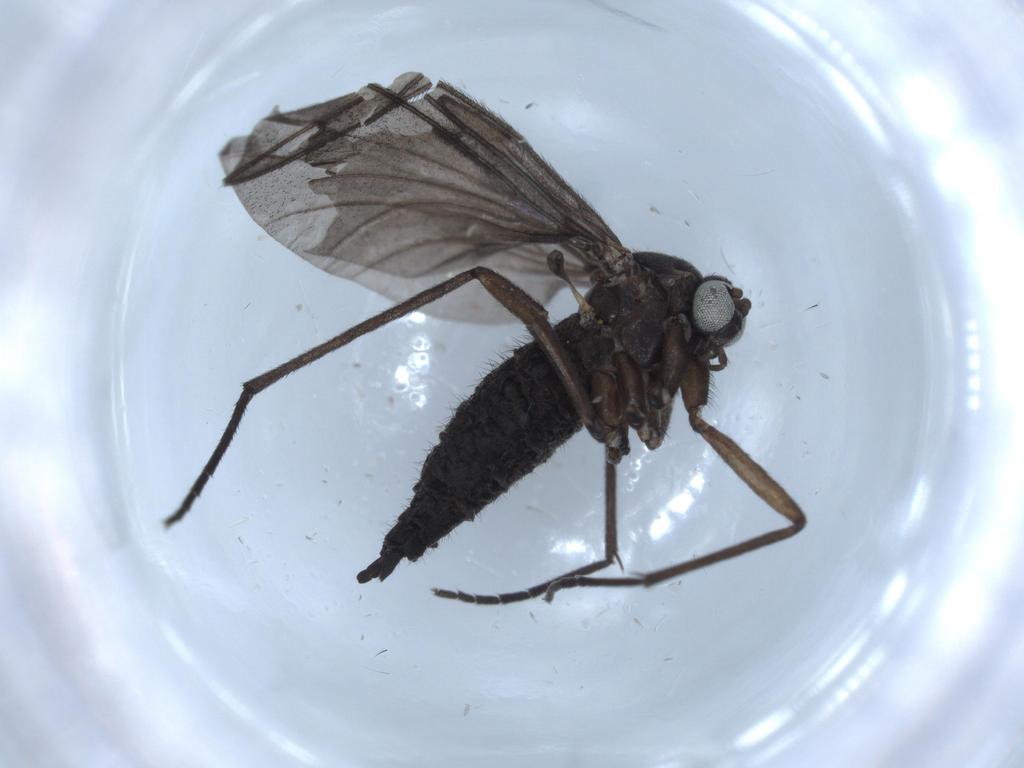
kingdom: Animalia
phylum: Arthropoda
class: Insecta
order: Diptera
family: Sciaridae
